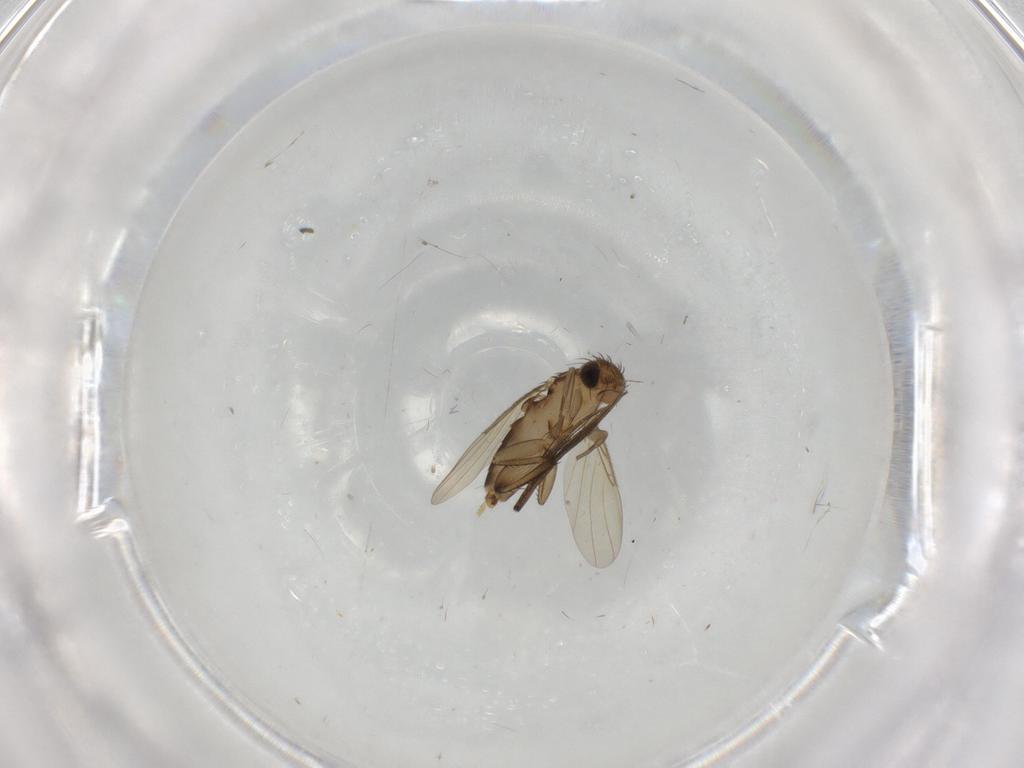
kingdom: Animalia
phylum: Arthropoda
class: Insecta
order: Diptera
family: Phoridae
